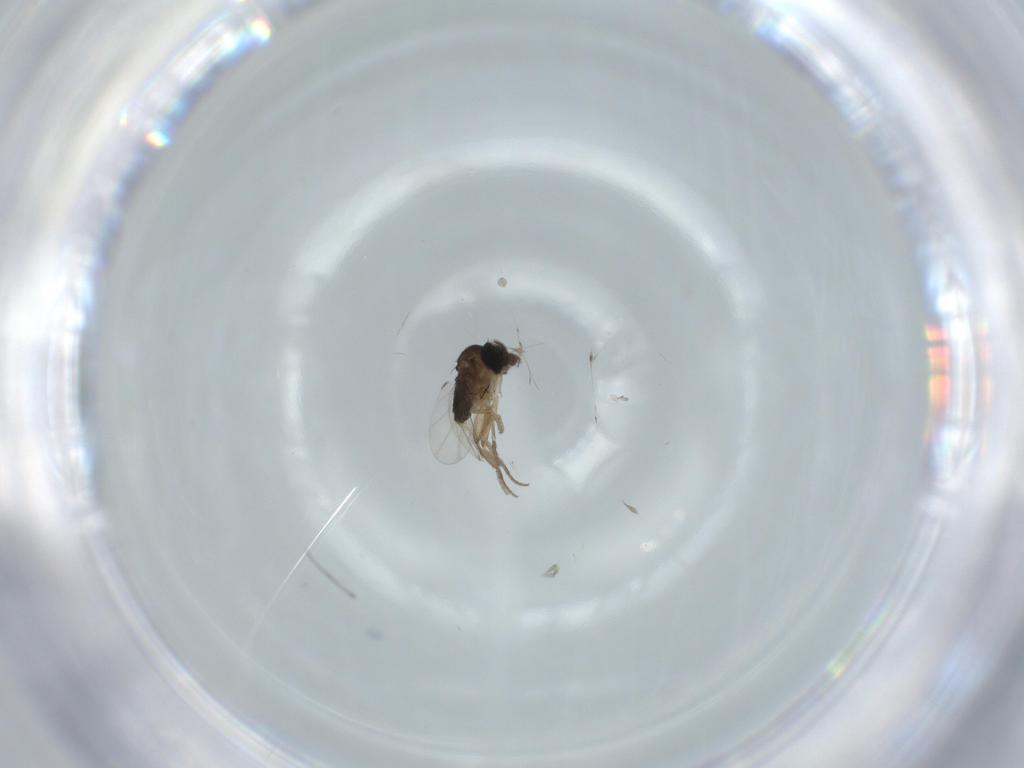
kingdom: Animalia
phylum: Arthropoda
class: Insecta
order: Diptera
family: Phoridae
